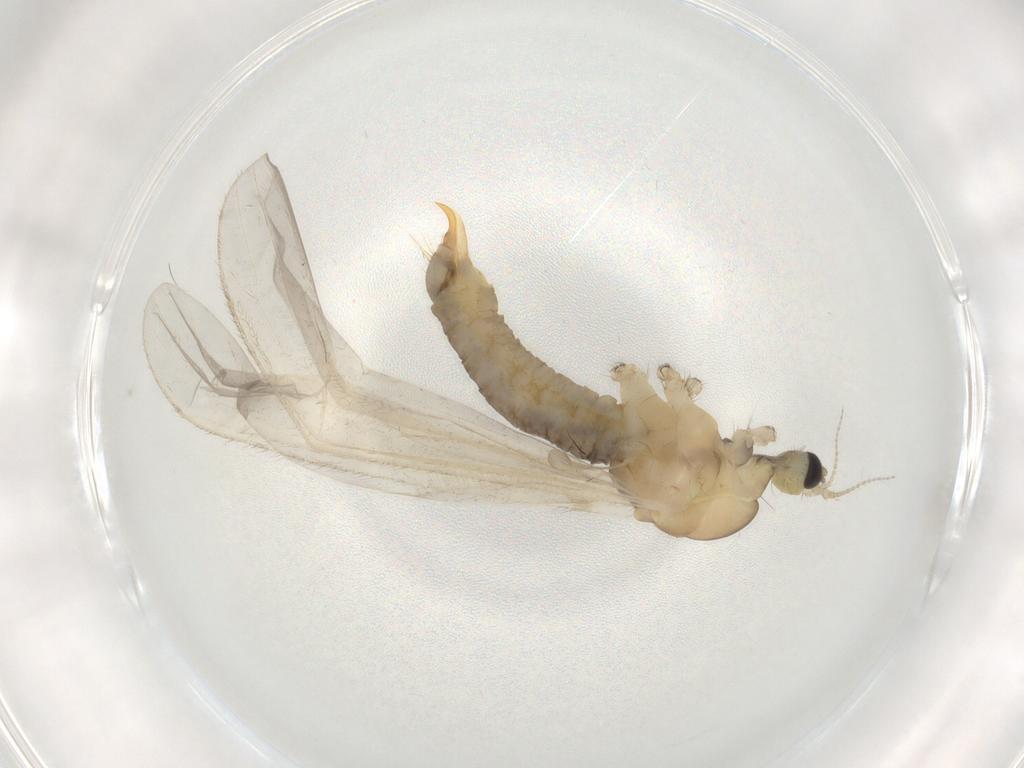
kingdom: Animalia
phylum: Arthropoda
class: Insecta
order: Diptera
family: Limoniidae
